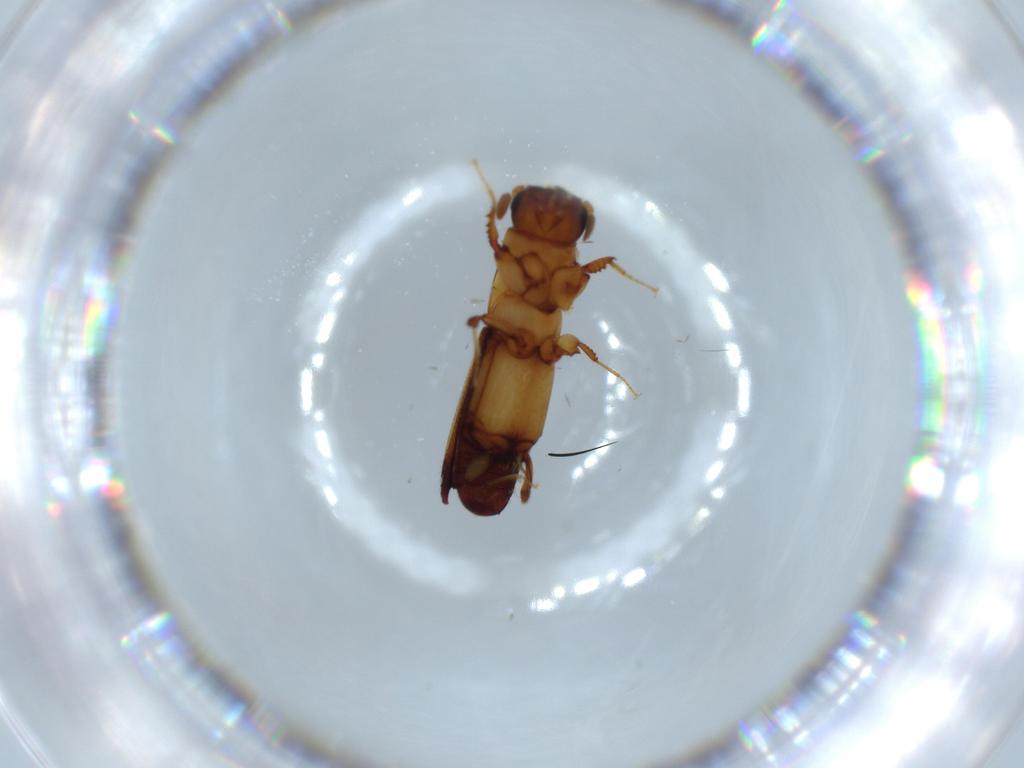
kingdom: Animalia
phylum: Arthropoda
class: Insecta
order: Coleoptera
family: Curculionidae
